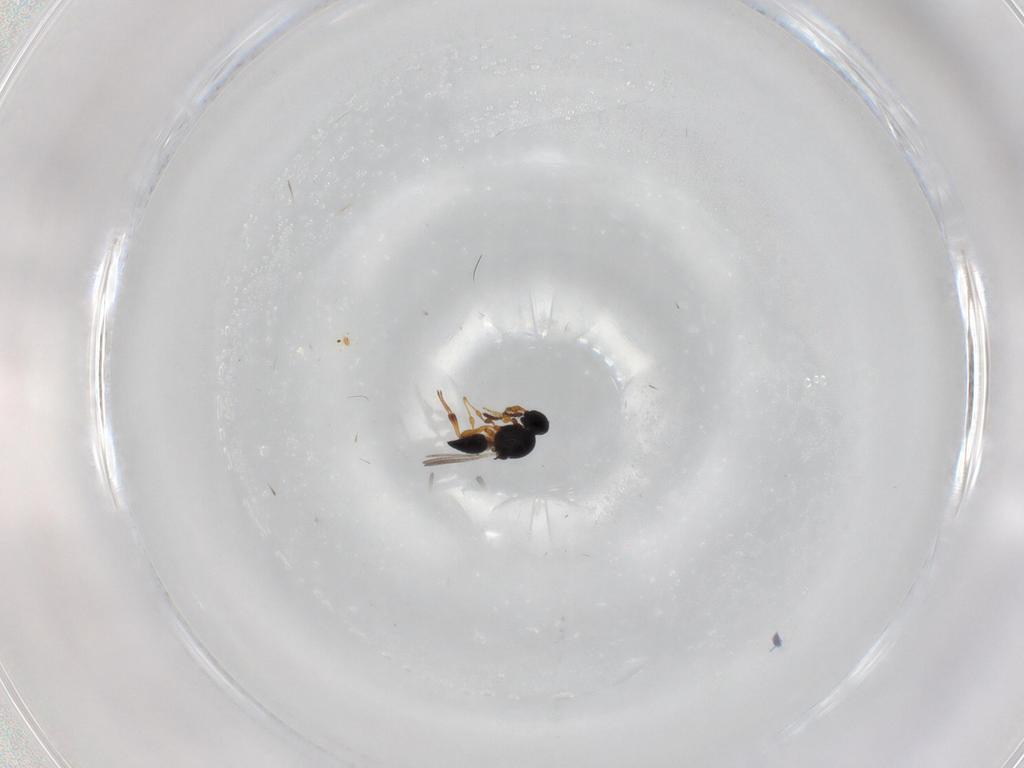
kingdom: Animalia
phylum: Arthropoda
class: Insecta
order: Hymenoptera
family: Platygastridae
